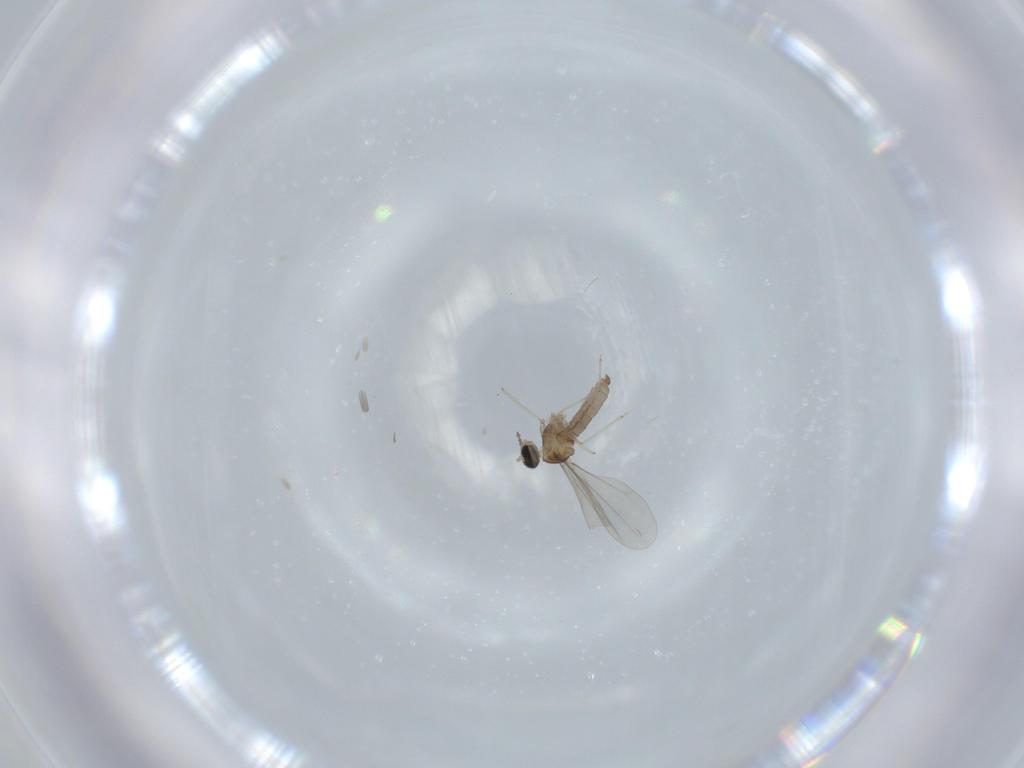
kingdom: Animalia
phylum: Arthropoda
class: Insecta
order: Diptera
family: Cecidomyiidae
